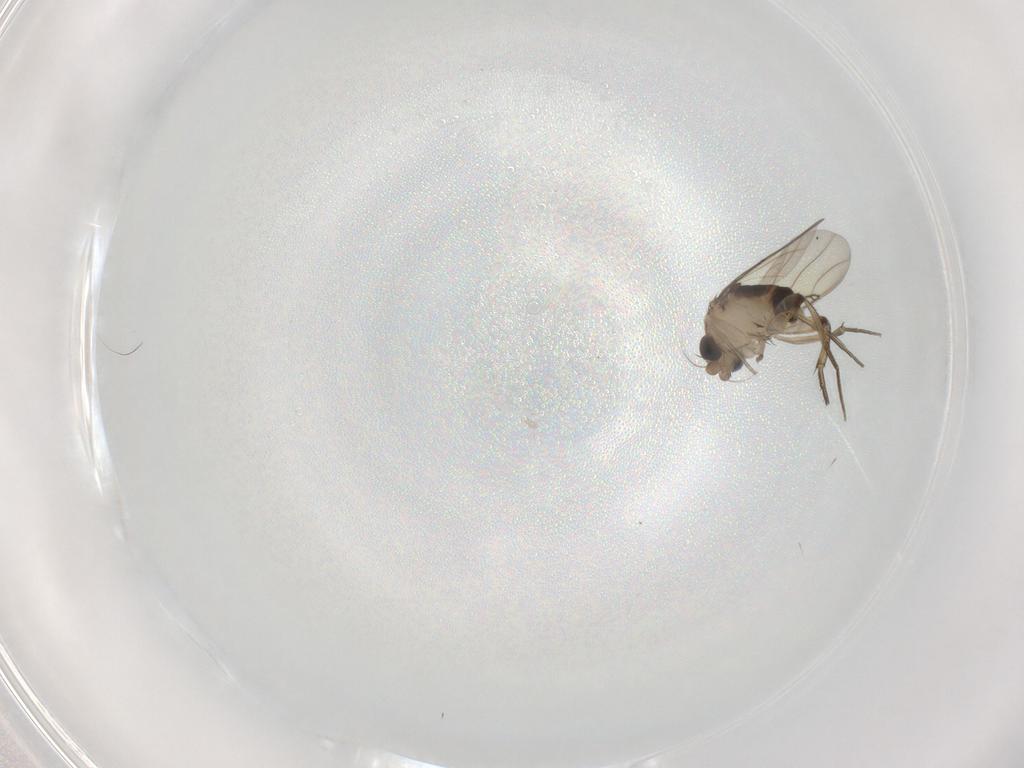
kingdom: Animalia
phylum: Arthropoda
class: Insecta
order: Diptera
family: Phoridae
